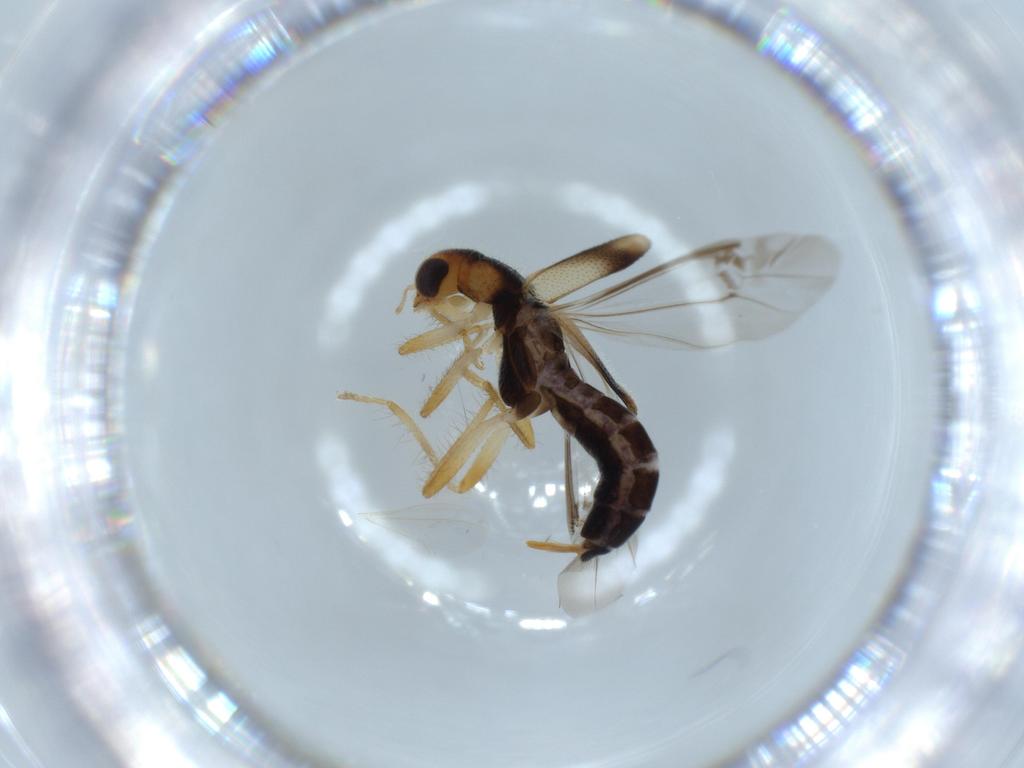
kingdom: Animalia
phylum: Arthropoda
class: Insecta
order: Coleoptera
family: Cleridae
